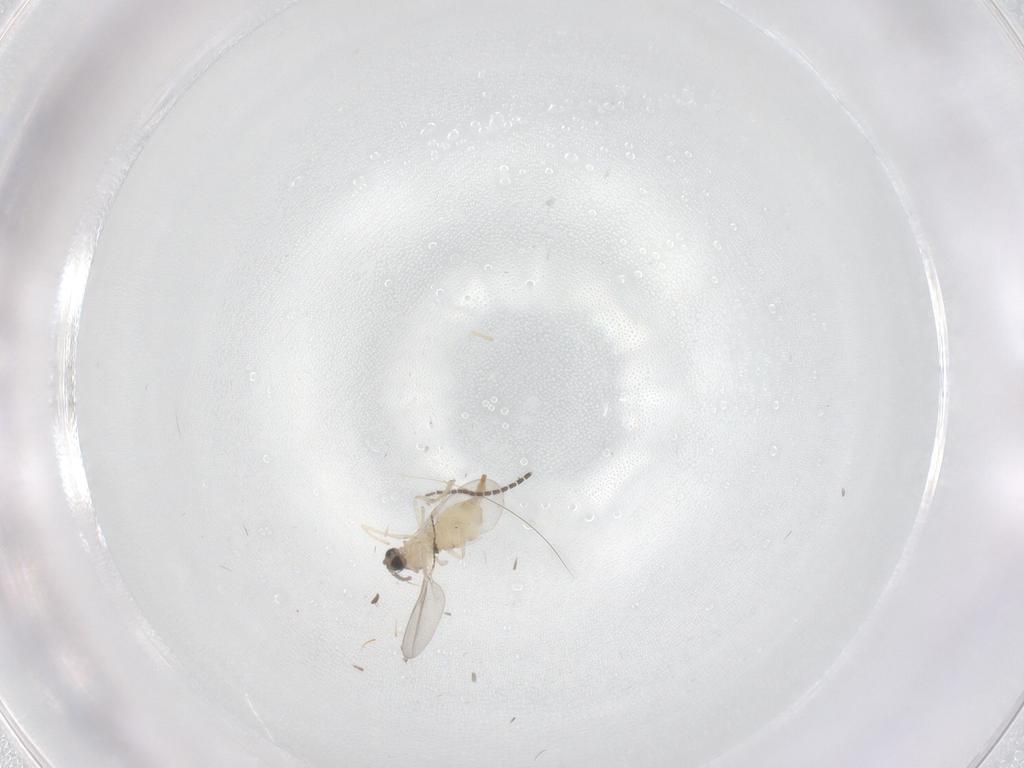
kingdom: Animalia
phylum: Arthropoda
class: Insecta
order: Diptera
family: Cecidomyiidae
